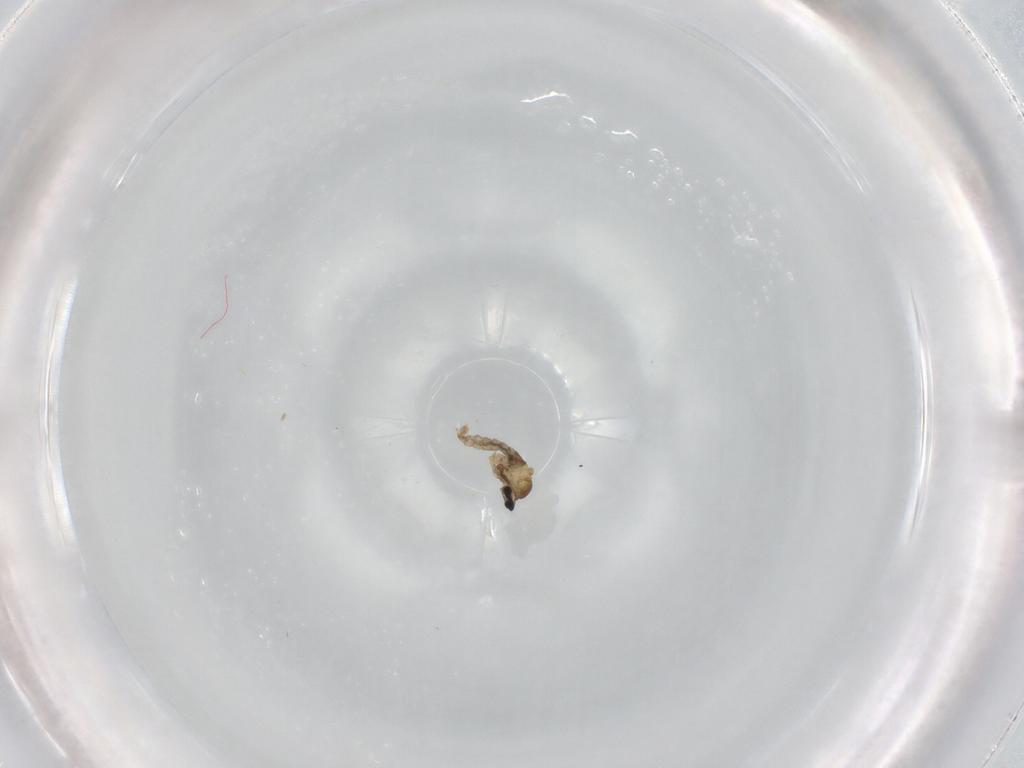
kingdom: Animalia
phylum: Arthropoda
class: Insecta
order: Diptera
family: Cecidomyiidae
